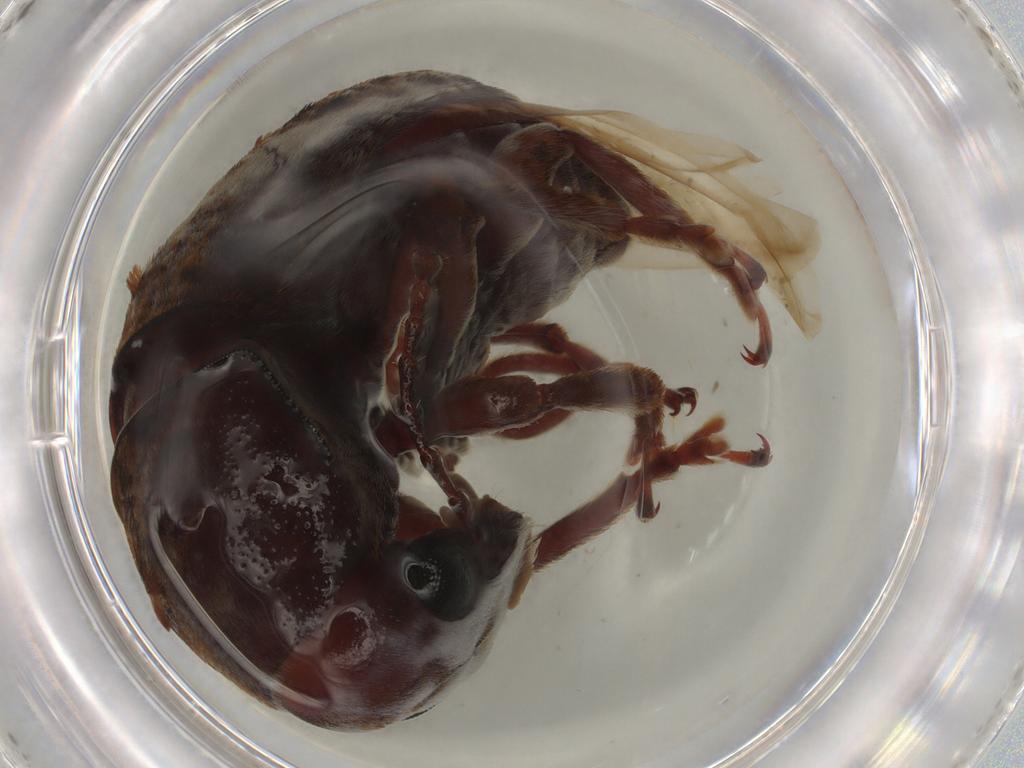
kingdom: Animalia
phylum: Arthropoda
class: Insecta
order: Coleoptera
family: Anthribidae
